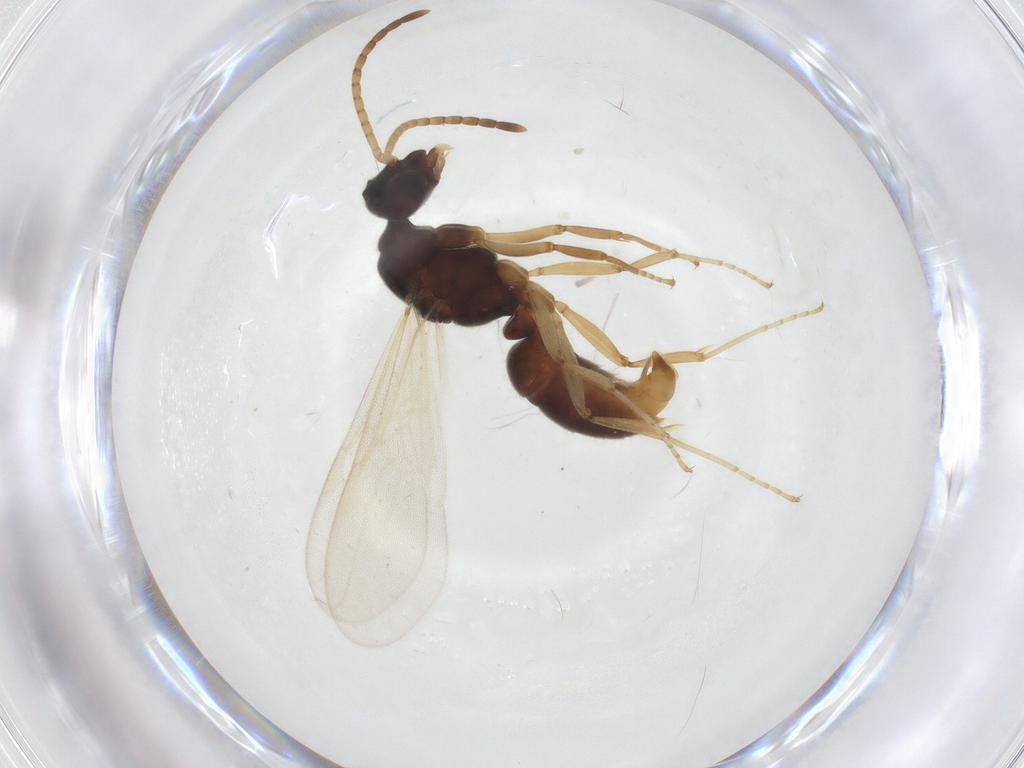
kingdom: Animalia
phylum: Arthropoda
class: Insecta
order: Hymenoptera
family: Formicidae
